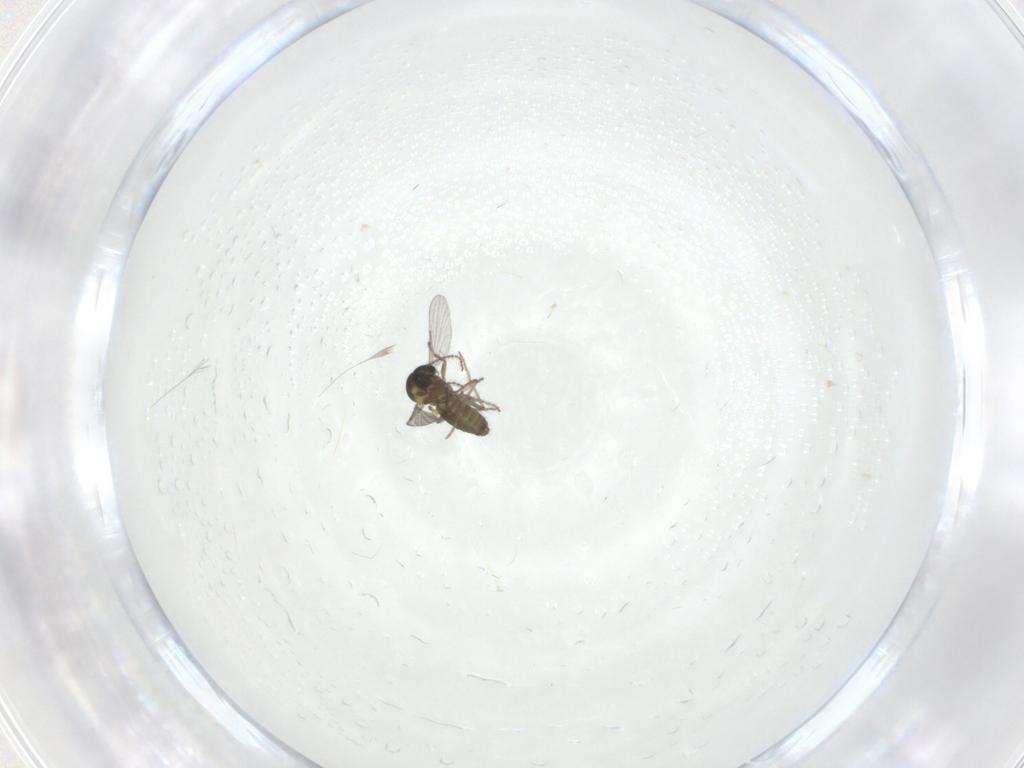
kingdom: Animalia
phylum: Arthropoda
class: Insecta
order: Diptera
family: Ceratopogonidae
